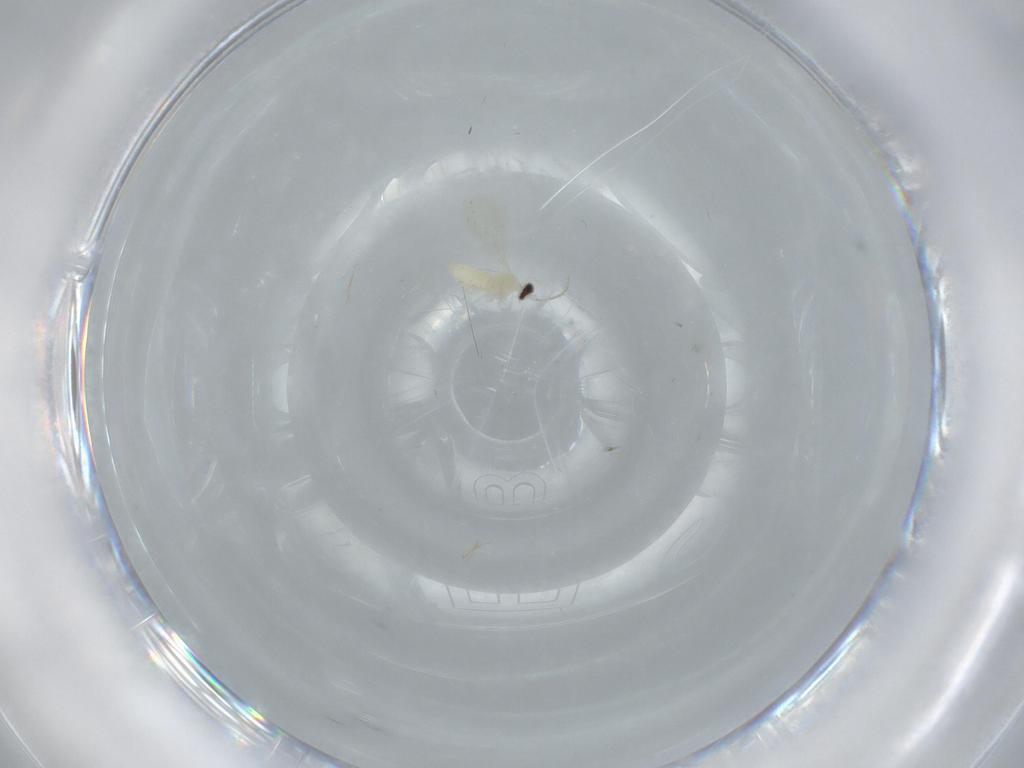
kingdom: Animalia
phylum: Arthropoda
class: Insecta
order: Diptera
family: Cecidomyiidae
